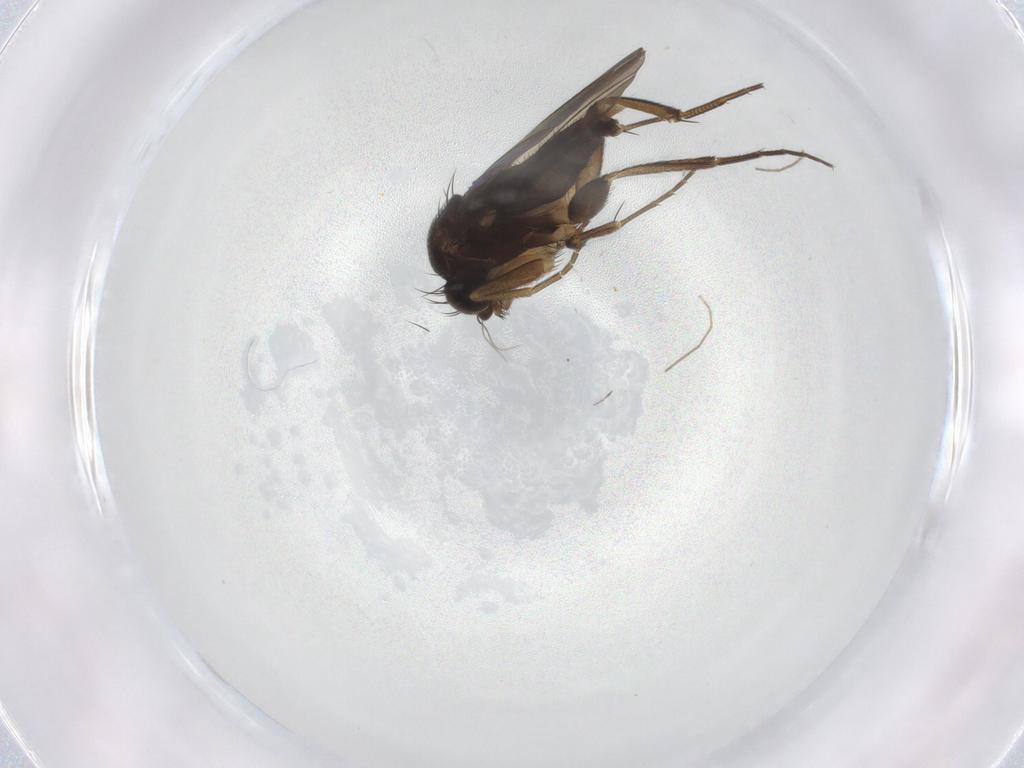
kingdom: Animalia
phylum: Arthropoda
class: Insecta
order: Diptera
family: Phoridae
